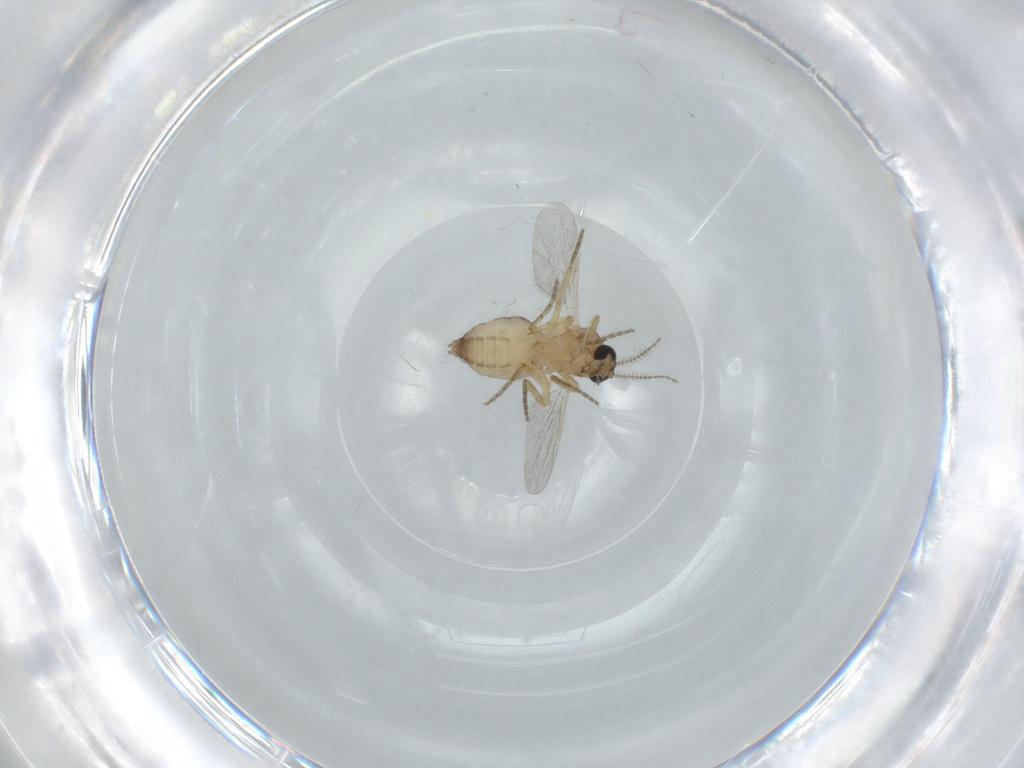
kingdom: Animalia
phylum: Arthropoda
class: Insecta
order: Diptera
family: Ceratopogonidae
